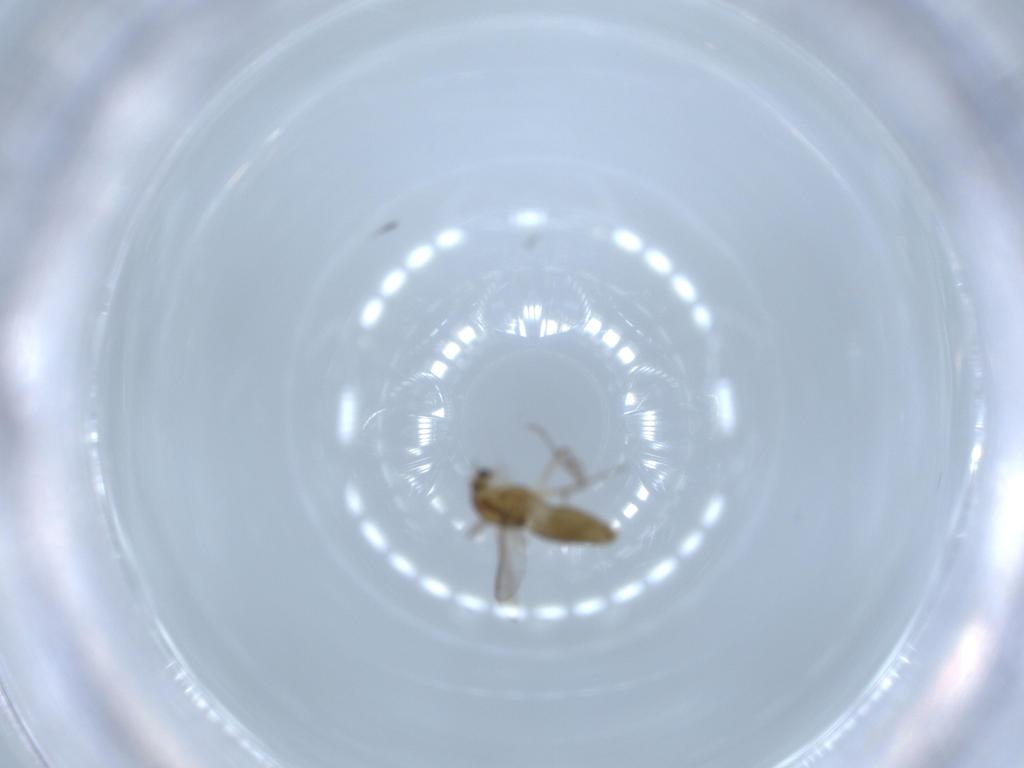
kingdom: Animalia
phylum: Arthropoda
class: Insecta
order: Diptera
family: Chironomidae
